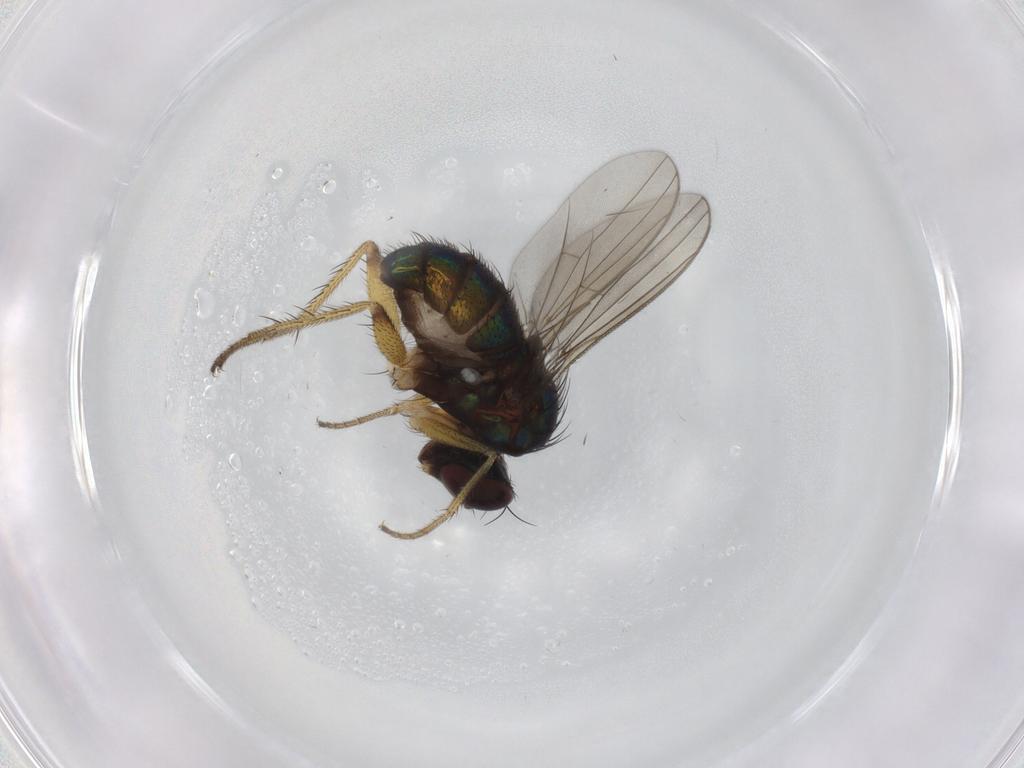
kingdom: Animalia
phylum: Arthropoda
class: Insecta
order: Diptera
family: Dolichopodidae
